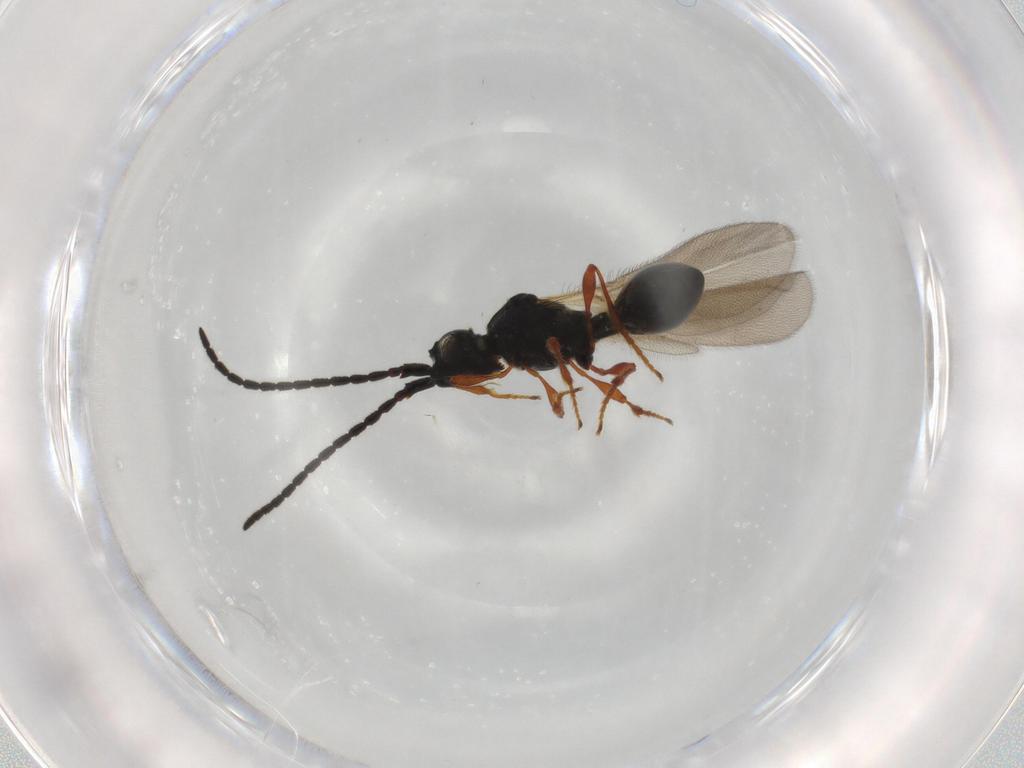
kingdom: Animalia
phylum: Arthropoda
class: Insecta
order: Hymenoptera
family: Diapriidae
